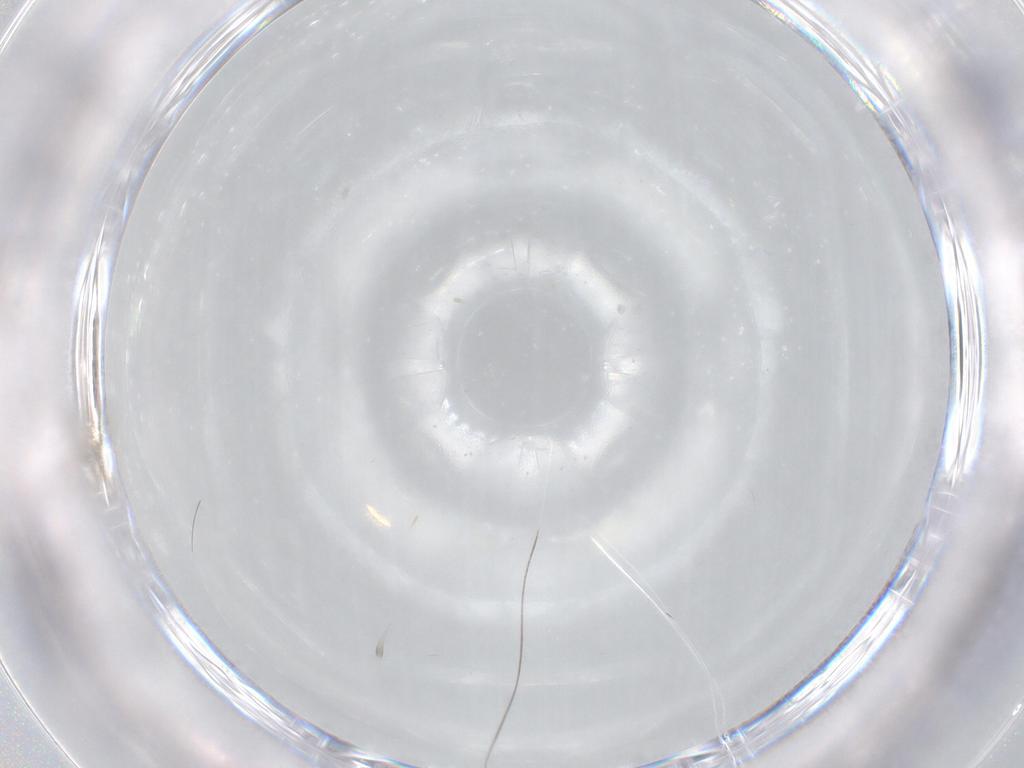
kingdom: Animalia
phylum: Arthropoda
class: Insecta
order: Diptera
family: Cecidomyiidae
